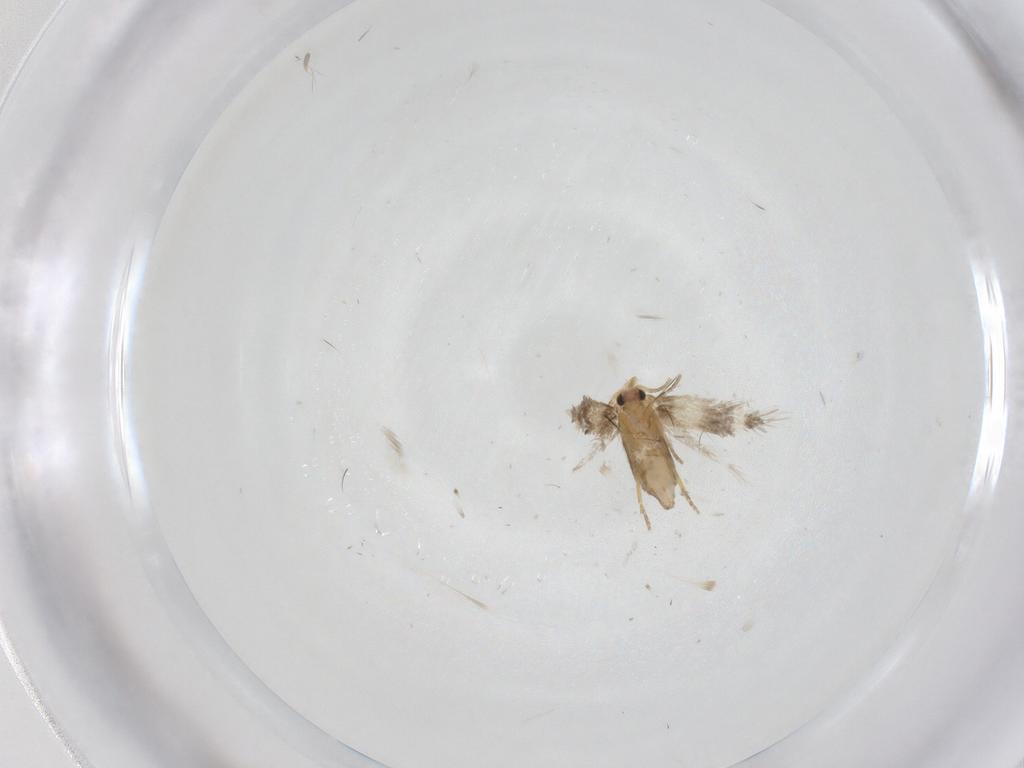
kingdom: Animalia
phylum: Arthropoda
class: Insecta
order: Lepidoptera
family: Nepticulidae
